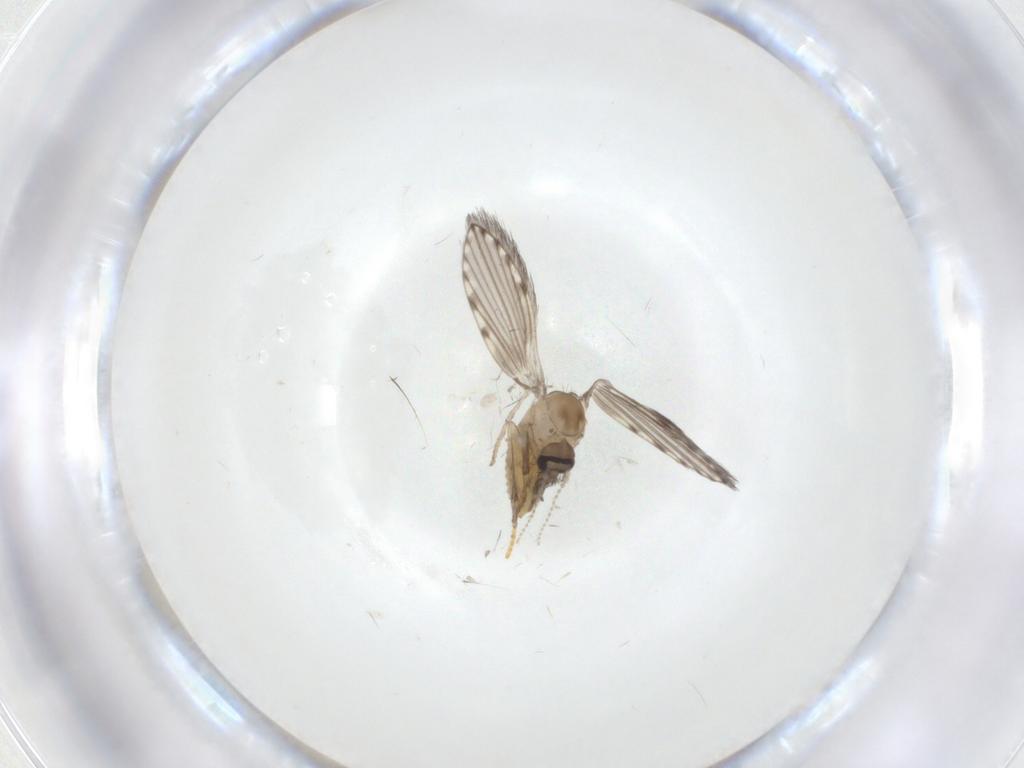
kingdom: Animalia
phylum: Arthropoda
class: Insecta
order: Diptera
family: Psychodidae
